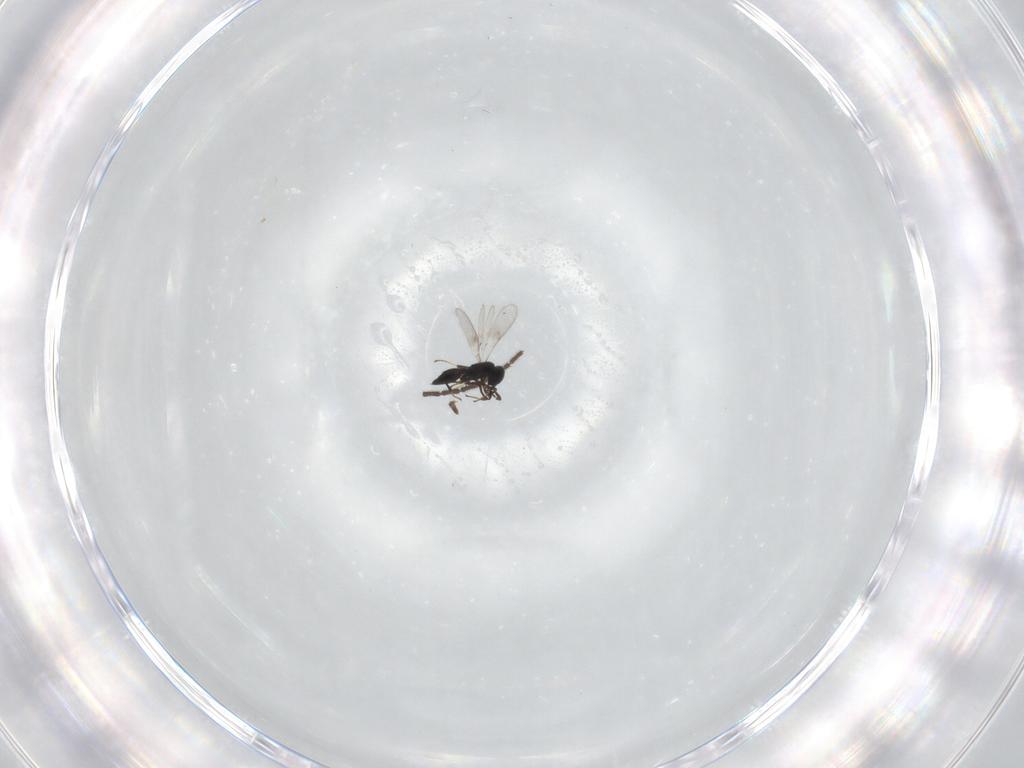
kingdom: Animalia
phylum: Arthropoda
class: Insecta
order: Hymenoptera
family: Scelionidae
